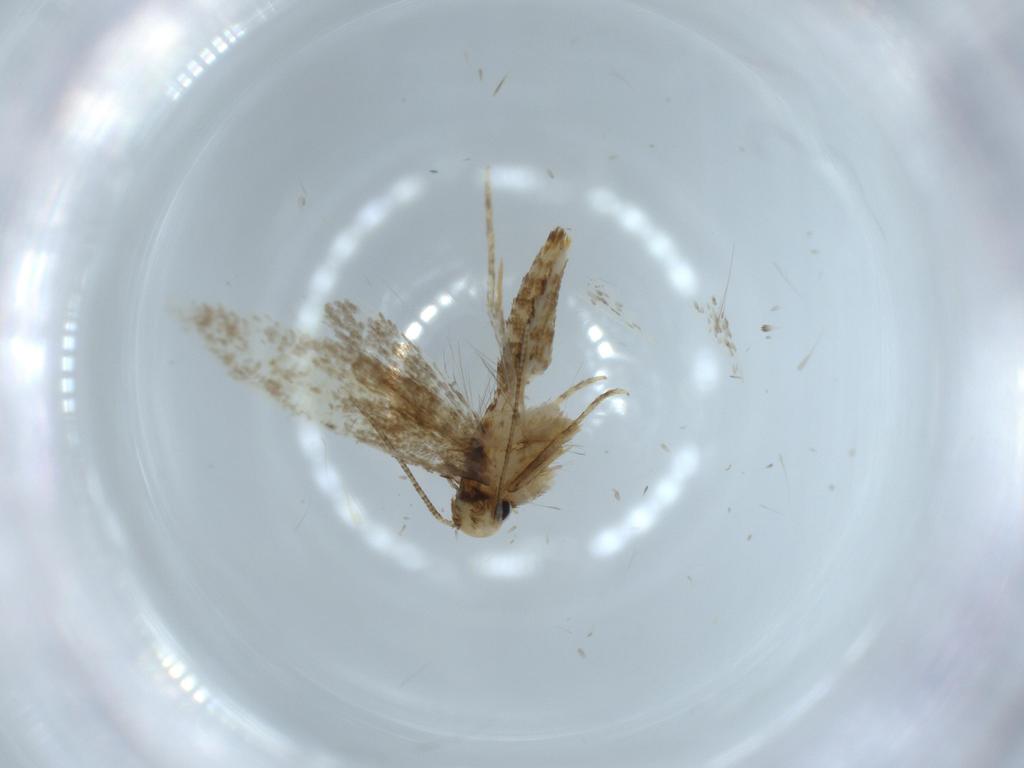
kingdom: Animalia
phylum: Arthropoda
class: Insecta
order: Lepidoptera
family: Tineidae
